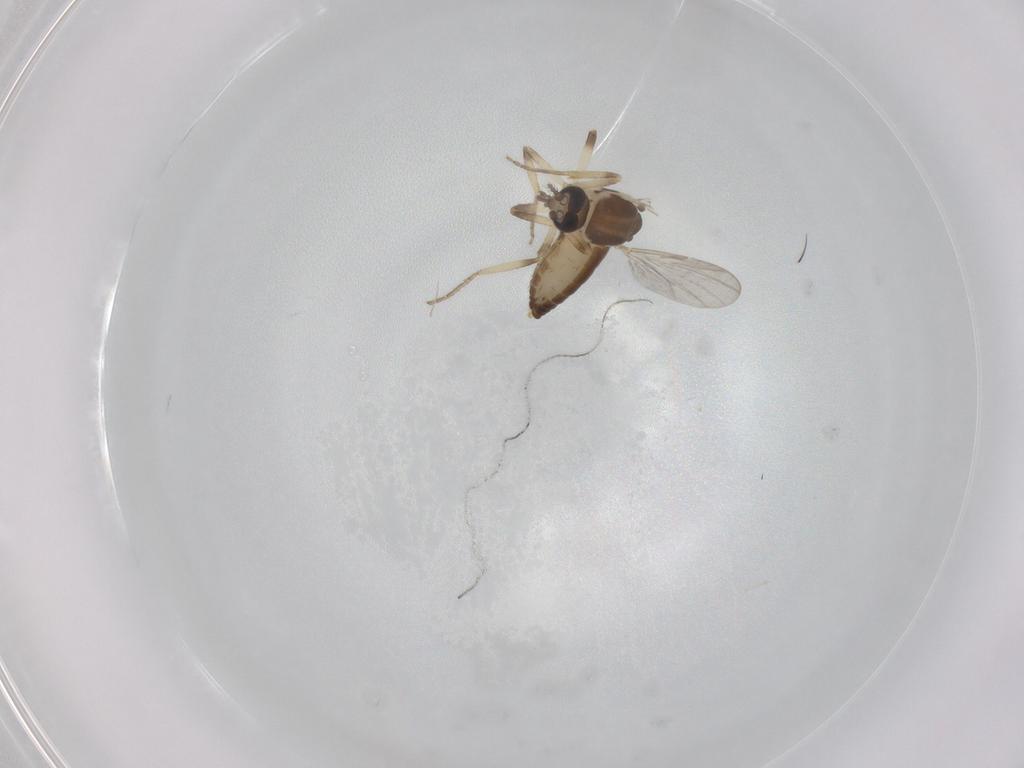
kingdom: Animalia
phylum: Arthropoda
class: Insecta
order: Diptera
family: Ceratopogonidae
